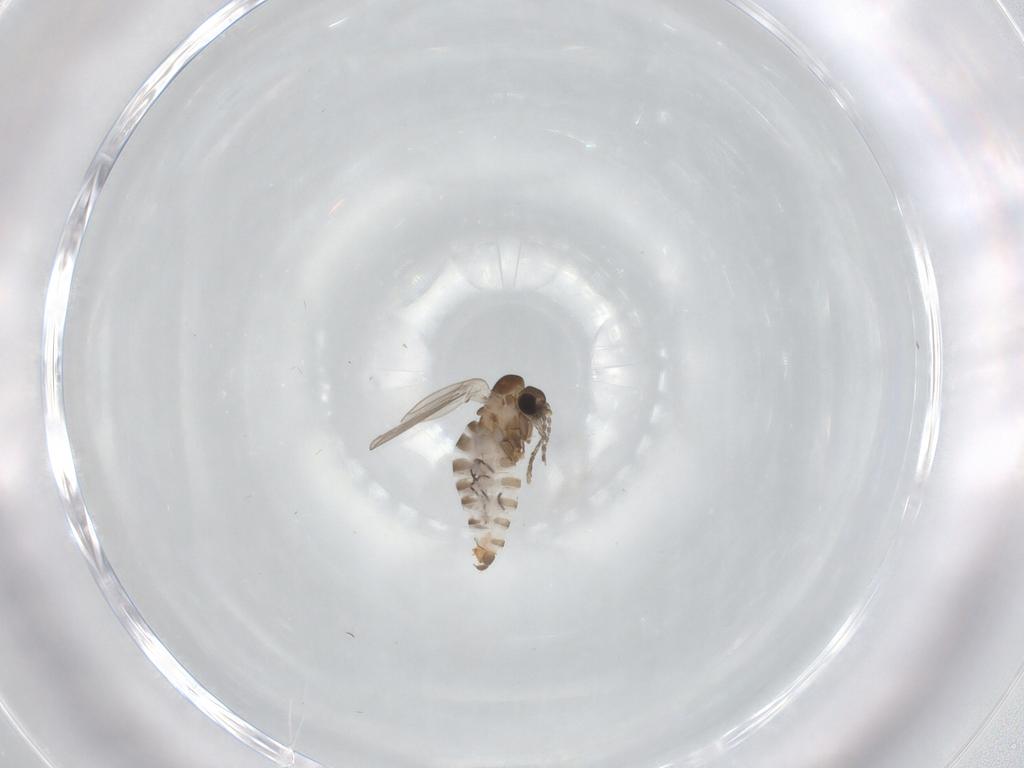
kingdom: Animalia
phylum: Arthropoda
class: Insecta
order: Diptera
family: Psychodidae
